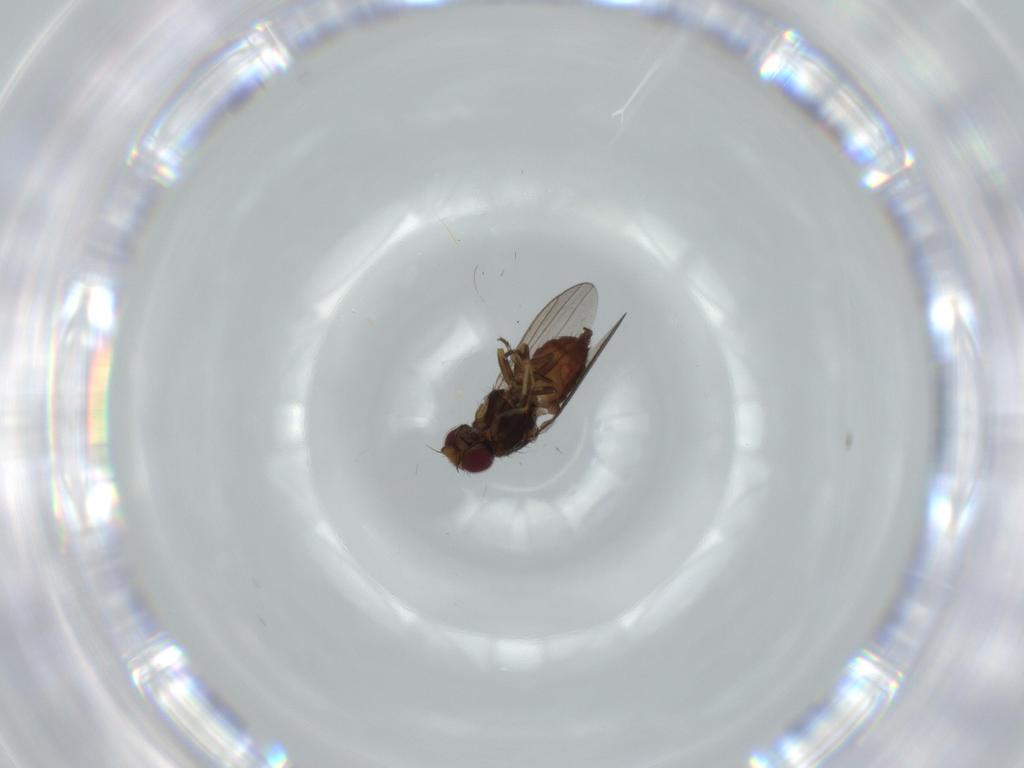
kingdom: Animalia
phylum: Arthropoda
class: Insecta
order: Diptera
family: Calliphoridae
